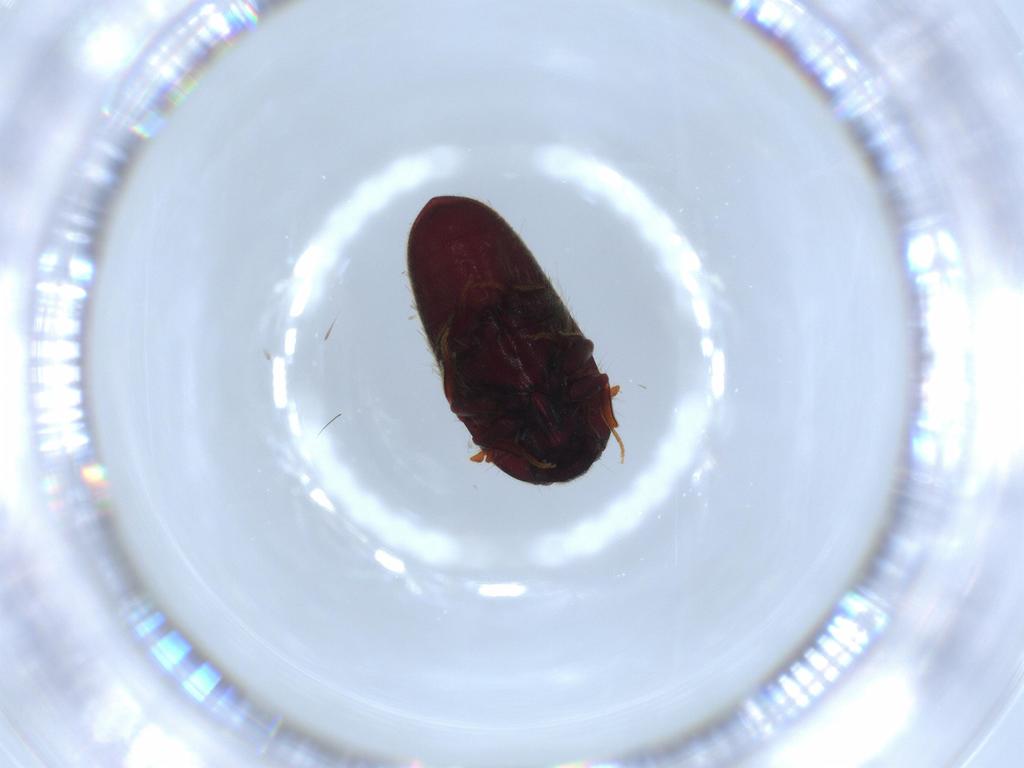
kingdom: Animalia
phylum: Arthropoda
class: Insecta
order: Coleoptera
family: Throscidae
